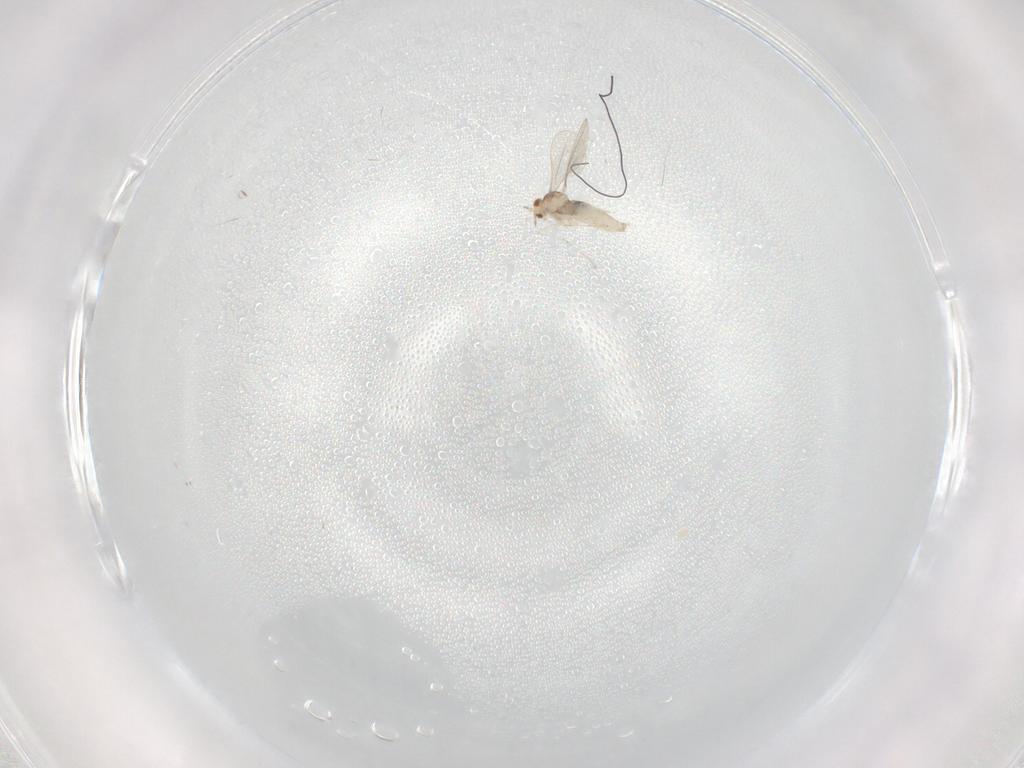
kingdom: Animalia
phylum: Arthropoda
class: Insecta
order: Diptera
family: Cecidomyiidae
